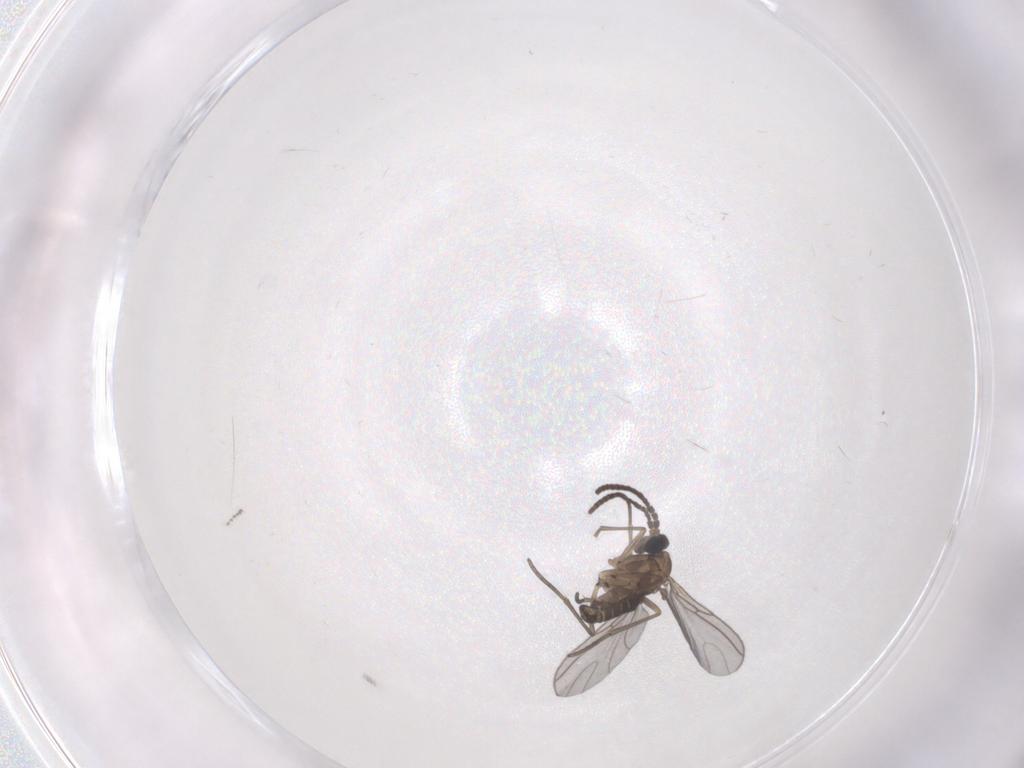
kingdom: Animalia
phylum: Arthropoda
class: Insecta
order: Diptera
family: Sciaridae
